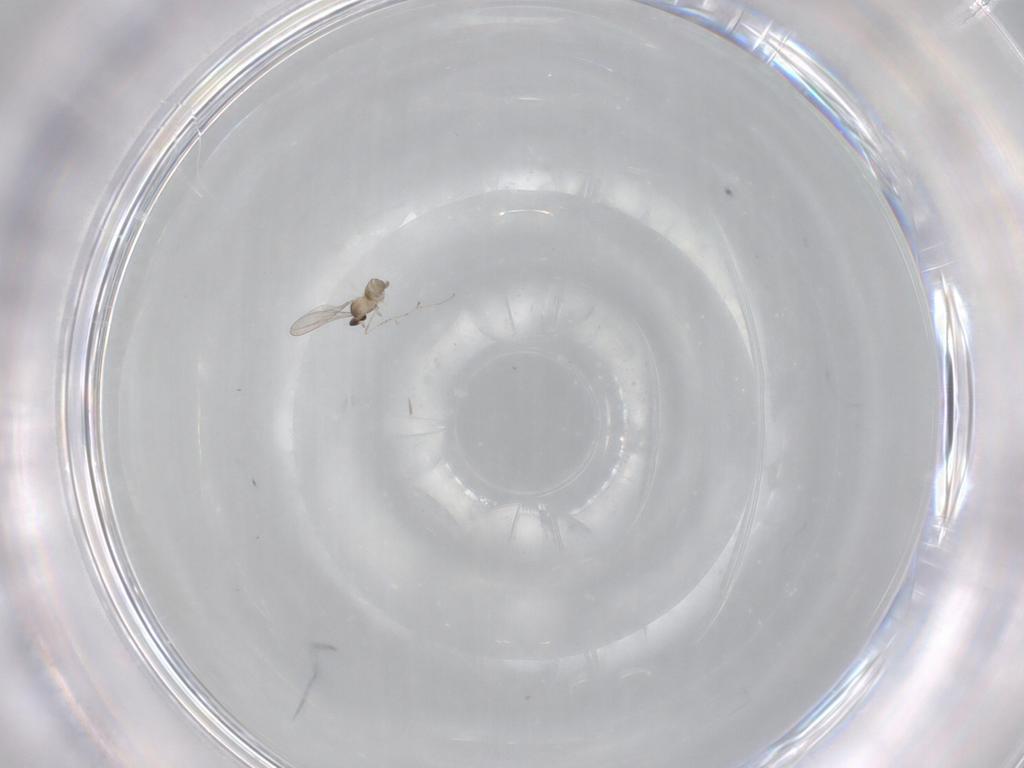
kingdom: Animalia
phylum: Arthropoda
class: Insecta
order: Diptera
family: Cecidomyiidae
